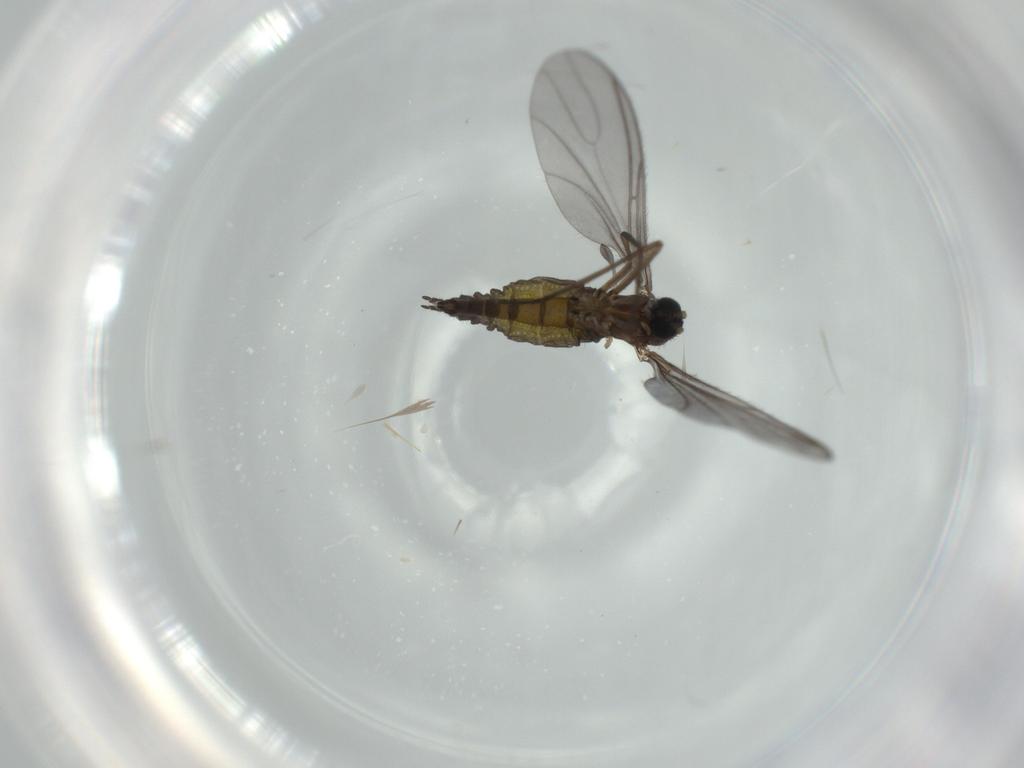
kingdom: Animalia
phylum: Arthropoda
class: Insecta
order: Diptera
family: Sciaridae
